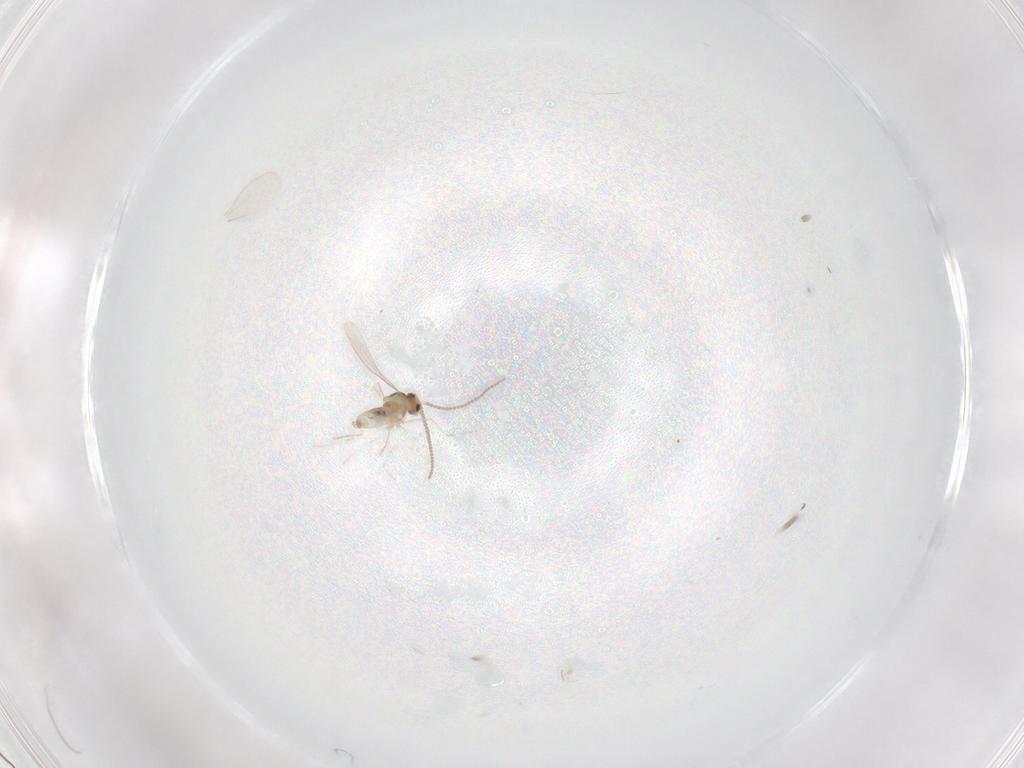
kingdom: Animalia
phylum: Arthropoda
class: Insecta
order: Diptera
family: Cecidomyiidae
